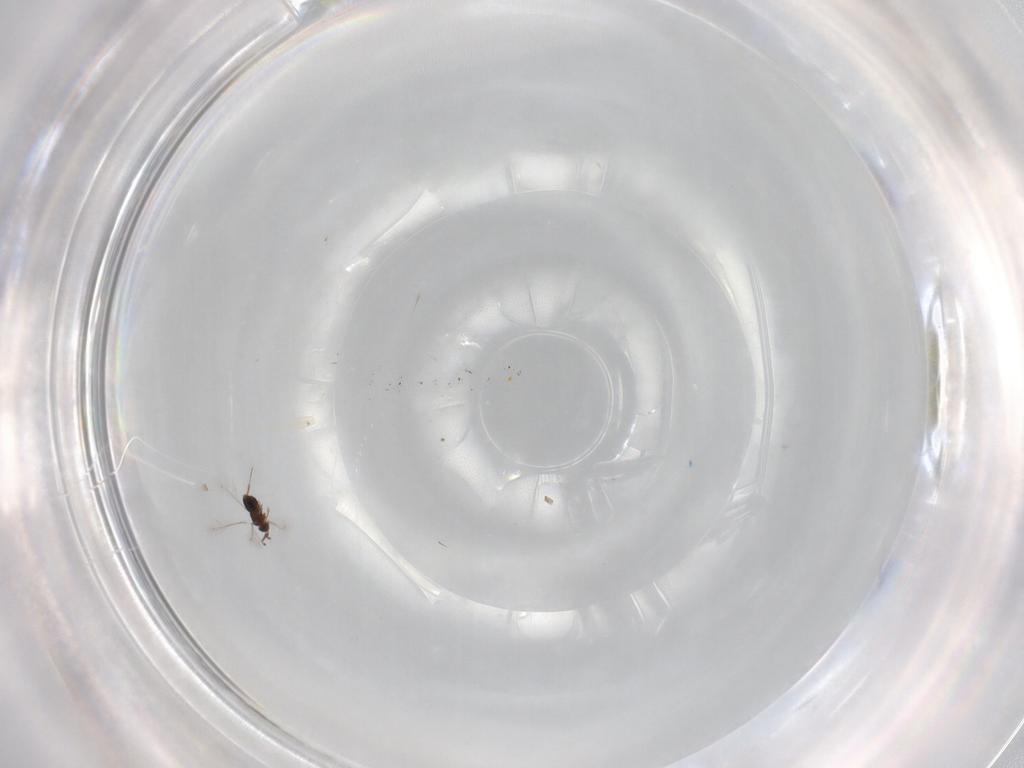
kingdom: Animalia
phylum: Arthropoda
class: Insecta
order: Hymenoptera
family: Mymaridae
